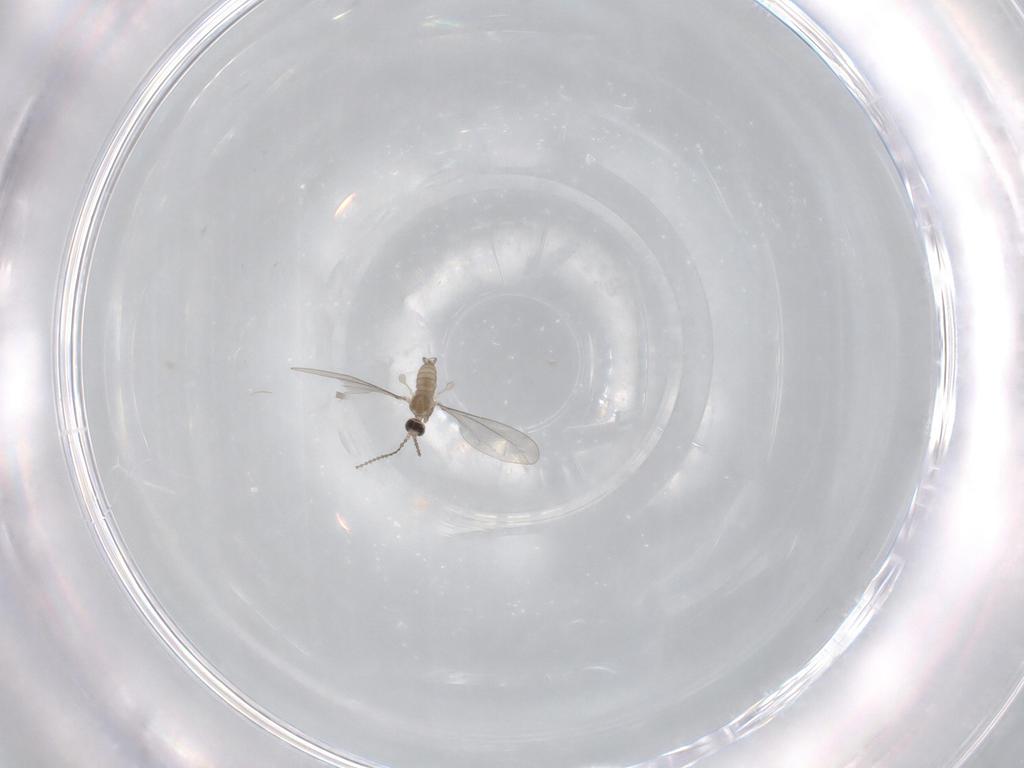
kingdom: Animalia
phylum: Arthropoda
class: Insecta
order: Diptera
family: Cecidomyiidae
